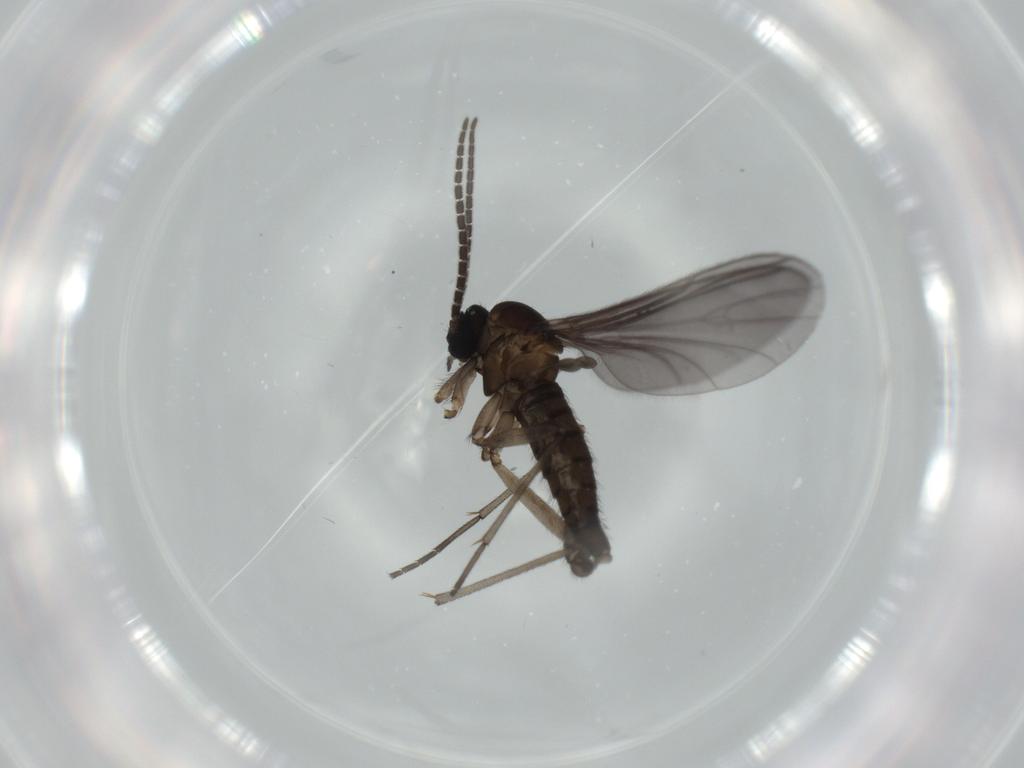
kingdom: Animalia
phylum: Arthropoda
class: Insecta
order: Diptera
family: Sciaridae
